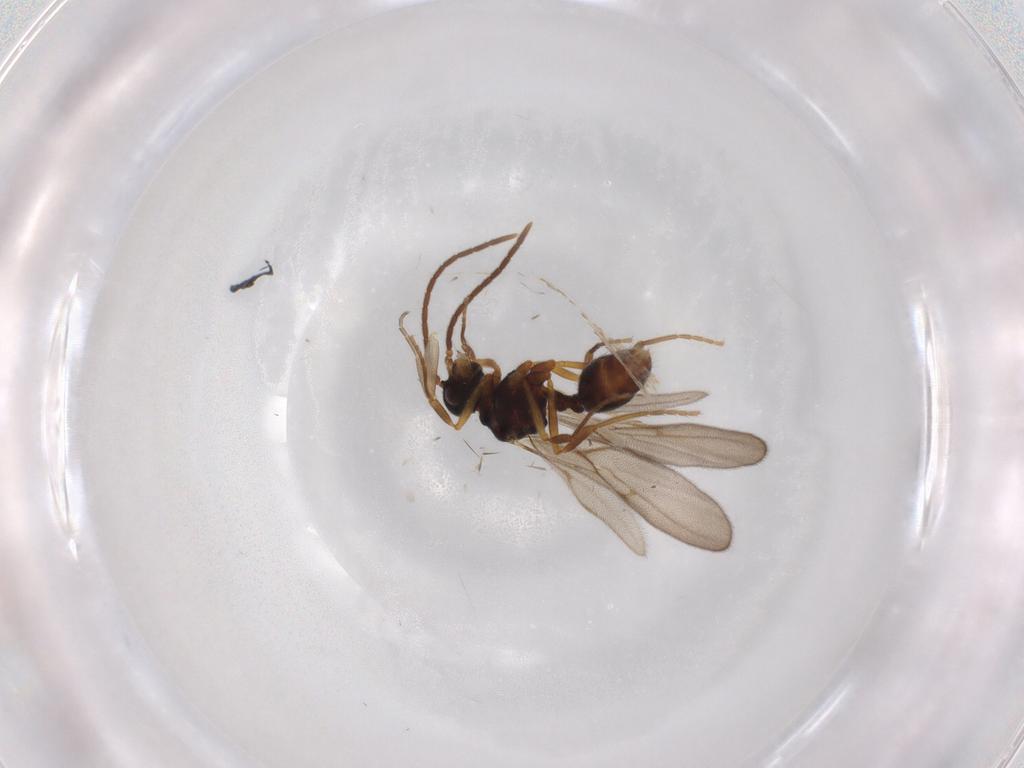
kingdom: Animalia
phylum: Arthropoda
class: Insecta
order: Hymenoptera
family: Formicidae
